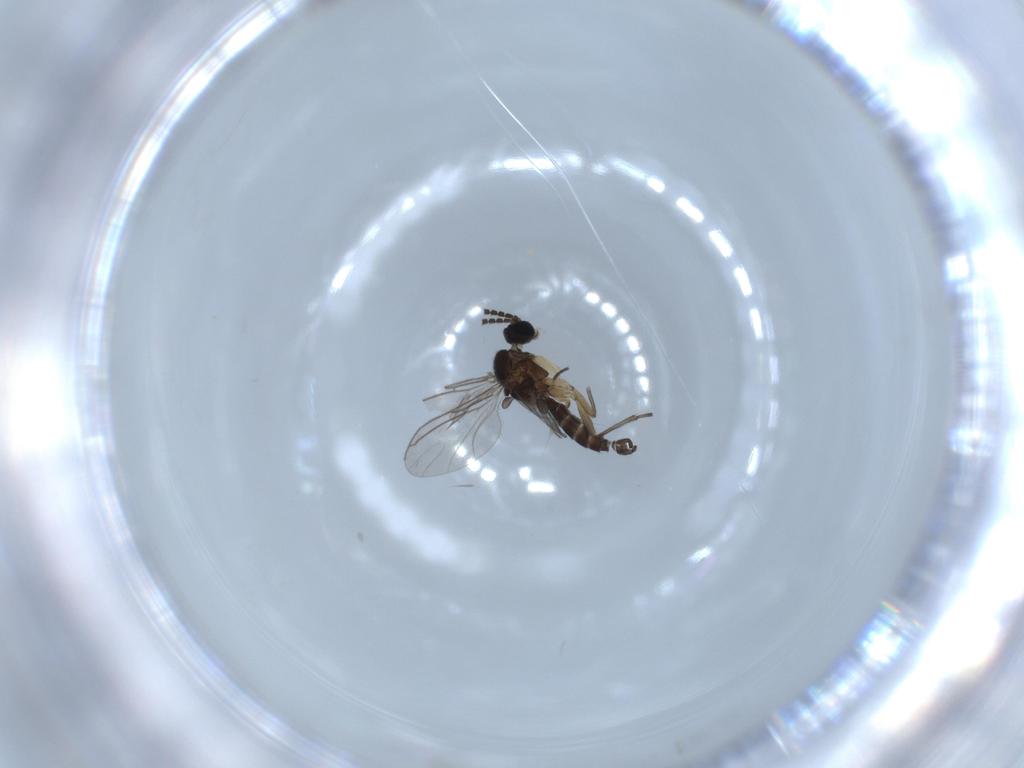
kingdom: Animalia
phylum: Arthropoda
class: Insecta
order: Diptera
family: Sciaridae
